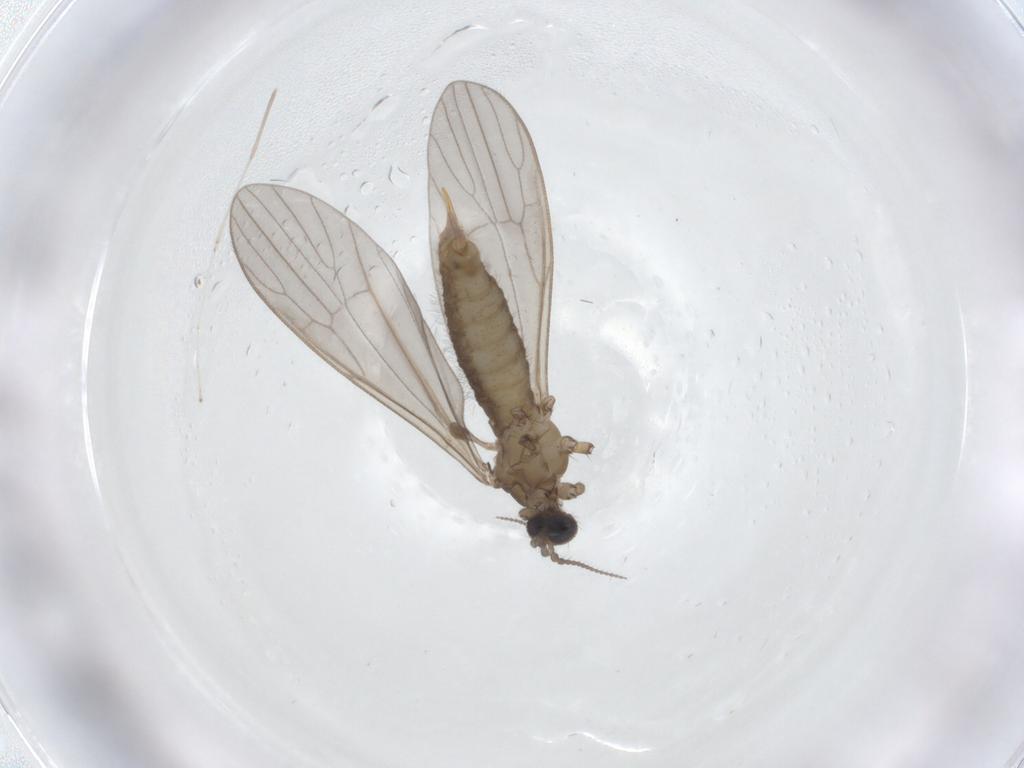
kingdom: Animalia
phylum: Arthropoda
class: Insecta
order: Diptera
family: Limoniidae
